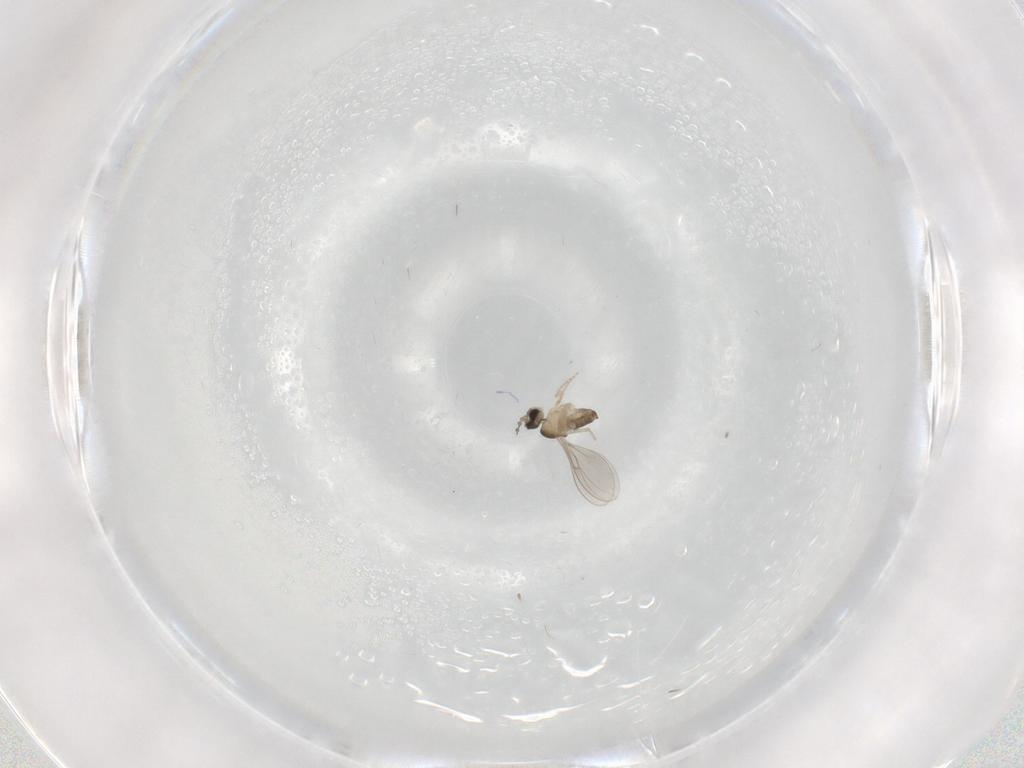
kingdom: Animalia
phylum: Arthropoda
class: Insecta
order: Diptera
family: Cecidomyiidae
